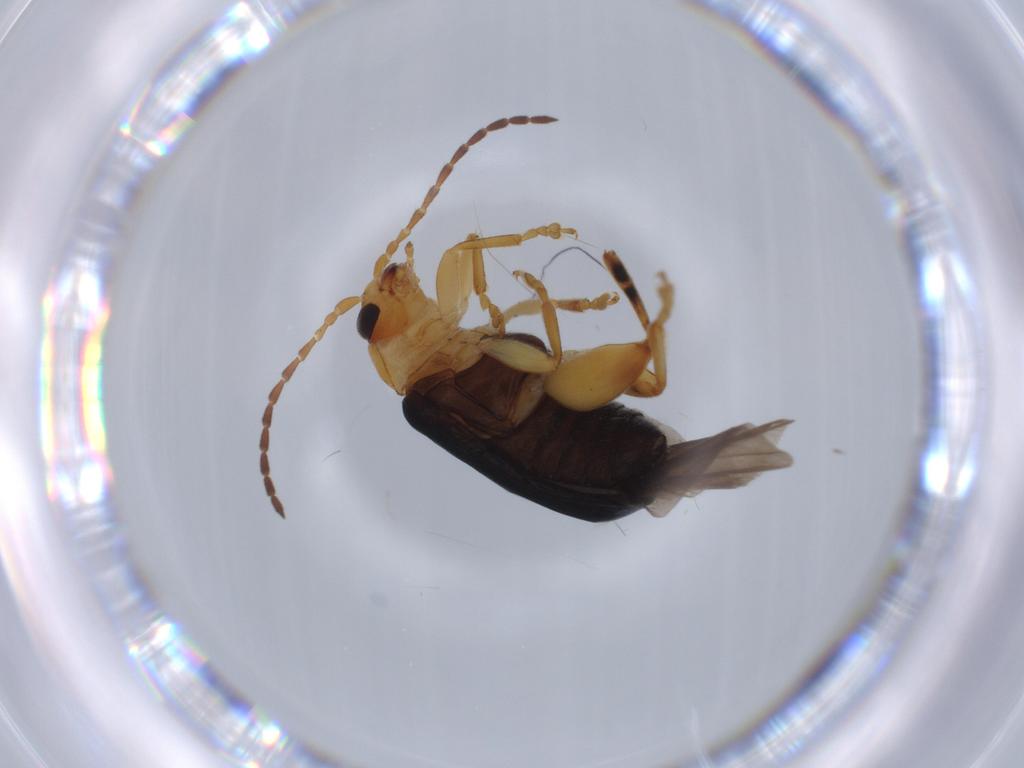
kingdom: Animalia
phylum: Arthropoda
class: Insecta
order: Coleoptera
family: Chrysomelidae
